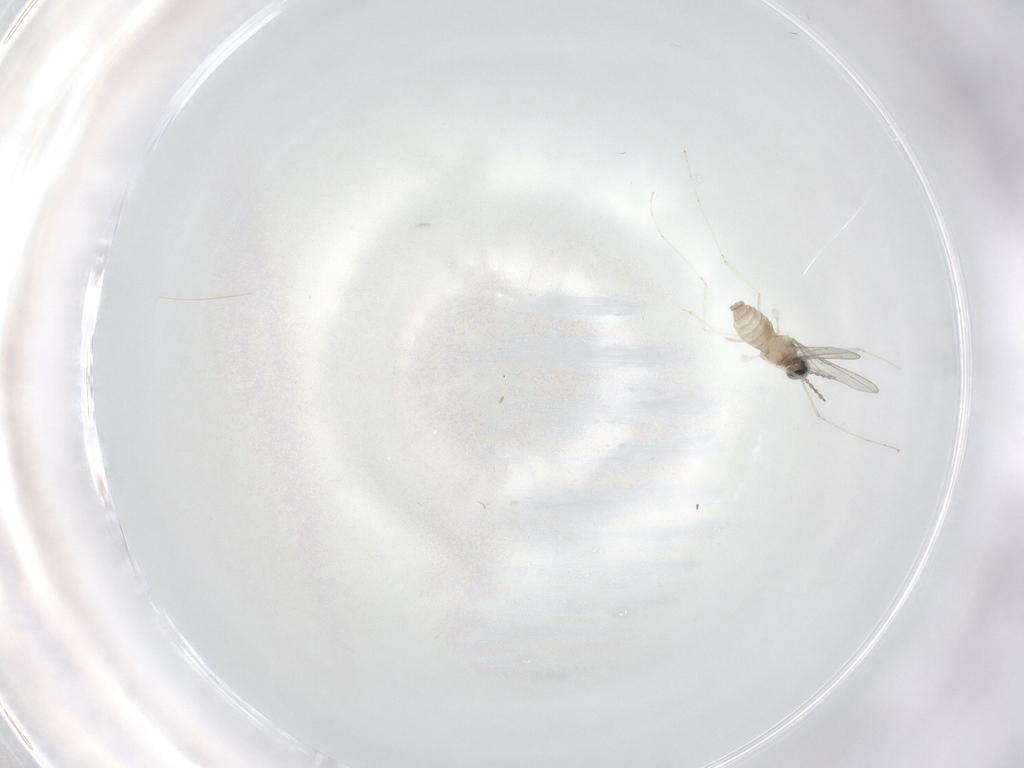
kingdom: Animalia
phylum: Arthropoda
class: Insecta
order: Diptera
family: Cecidomyiidae
